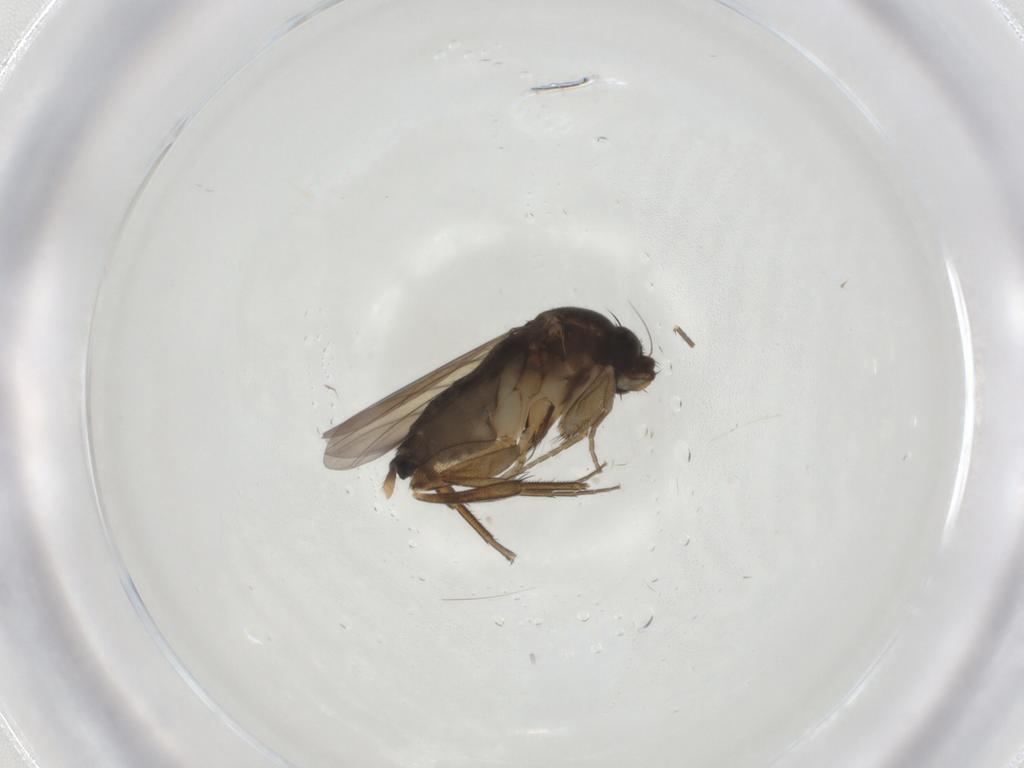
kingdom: Animalia
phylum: Arthropoda
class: Insecta
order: Diptera
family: Phoridae
